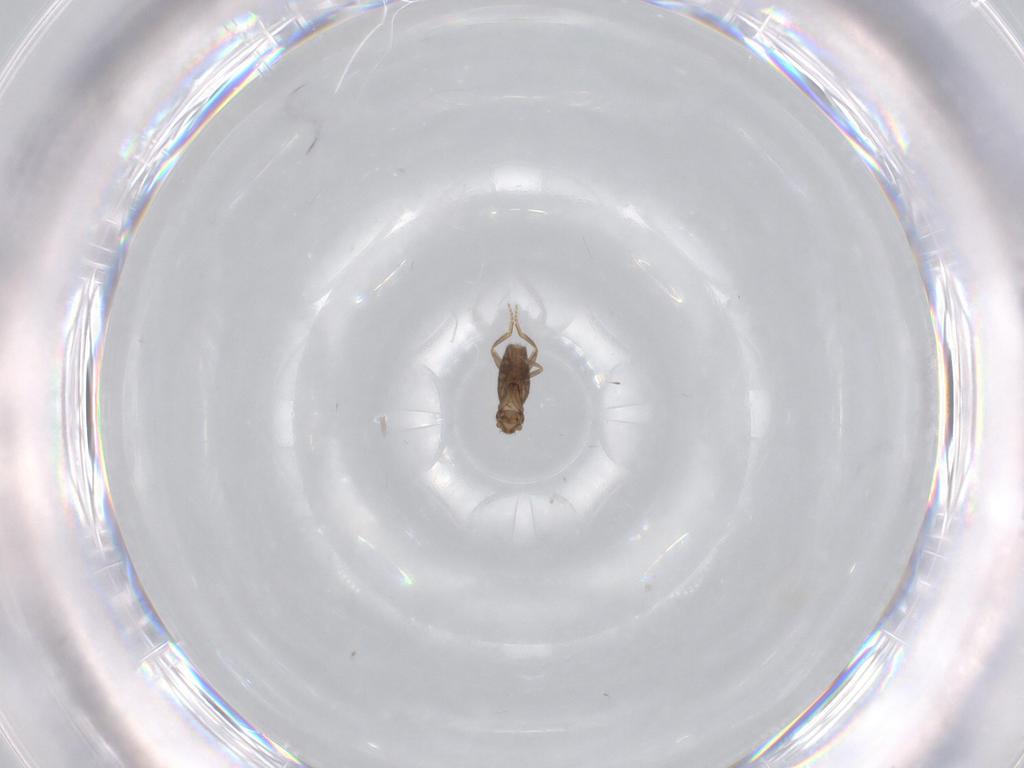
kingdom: Animalia
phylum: Arthropoda
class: Insecta
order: Diptera
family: Phoridae
